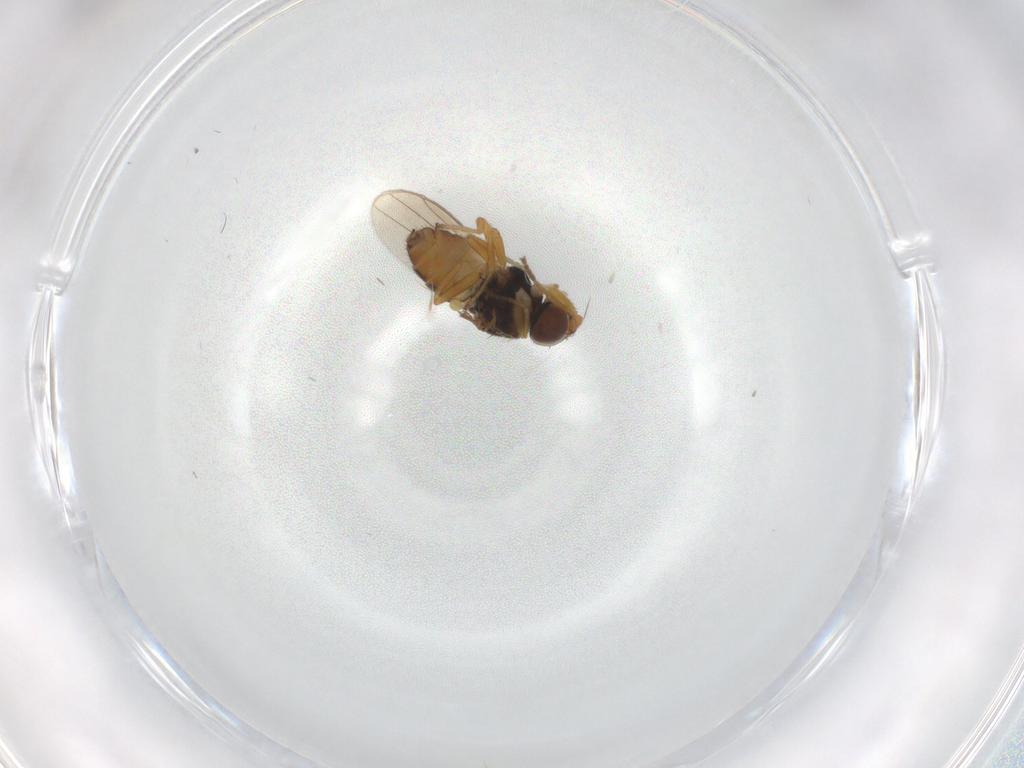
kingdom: Animalia
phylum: Arthropoda
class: Insecta
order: Diptera
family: Chloropidae
